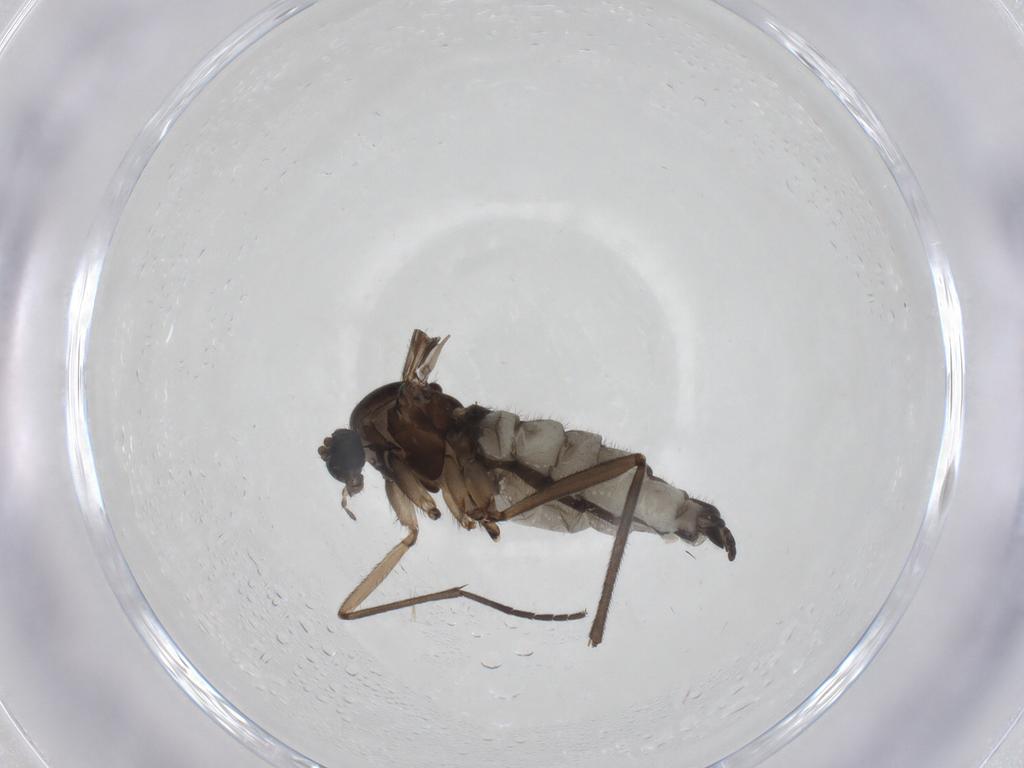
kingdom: Animalia
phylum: Arthropoda
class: Insecta
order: Diptera
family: Sciaridae
